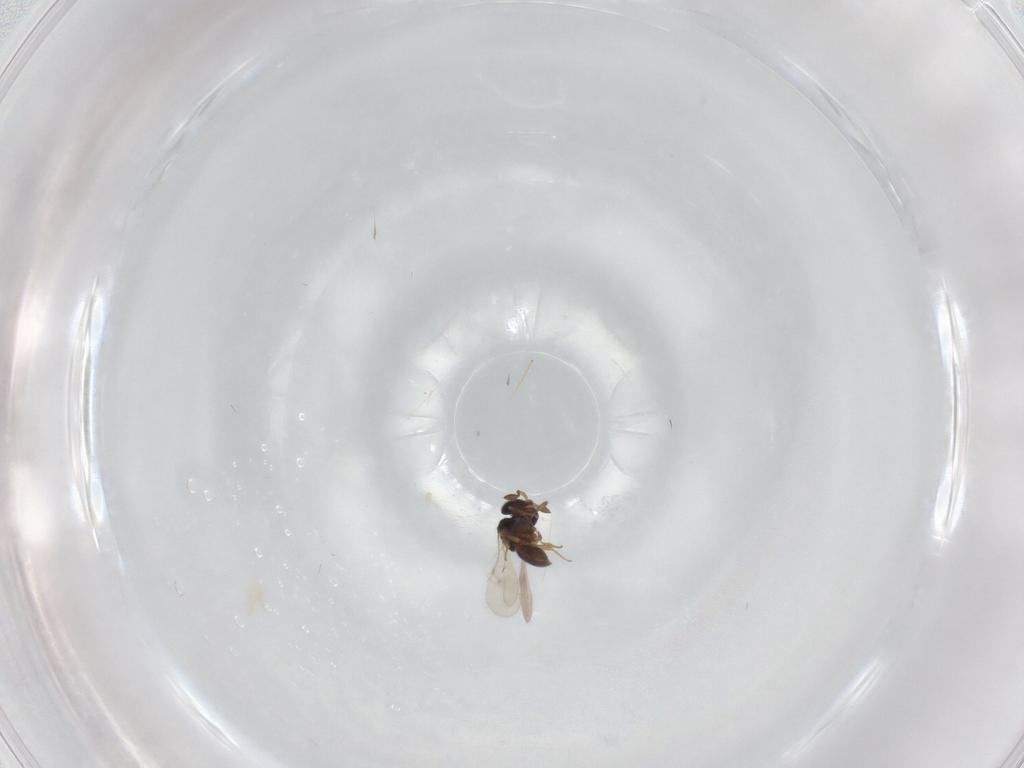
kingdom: Animalia
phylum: Arthropoda
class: Insecta
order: Hymenoptera
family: Scelionidae
